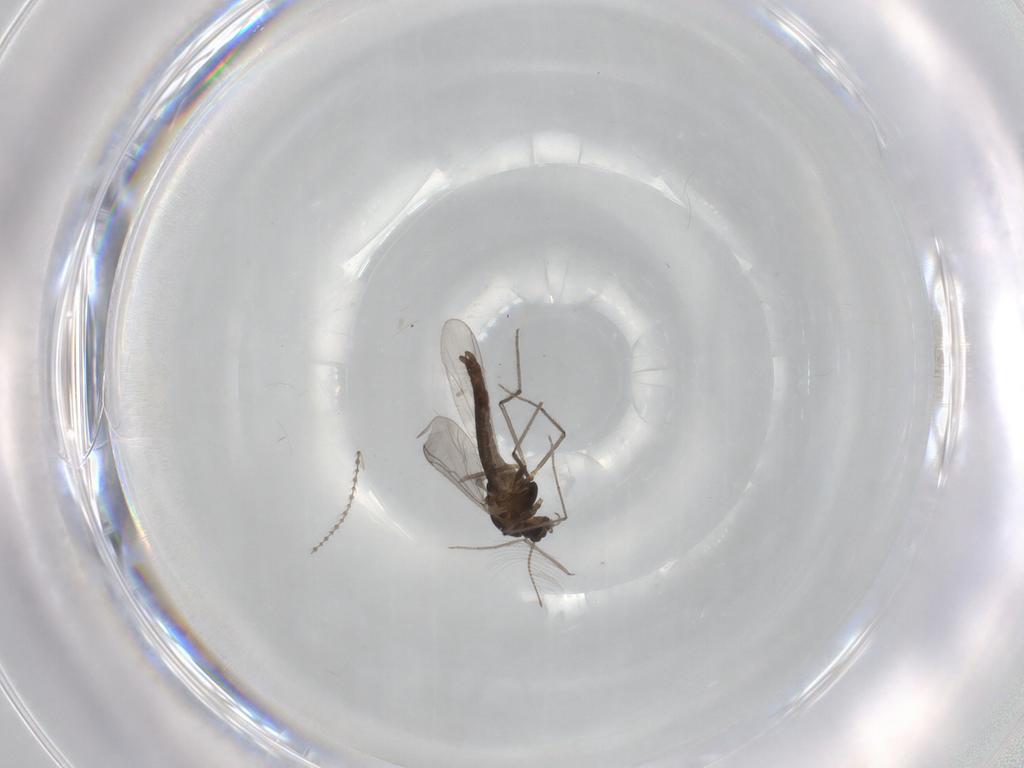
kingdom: Animalia
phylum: Arthropoda
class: Insecta
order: Diptera
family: Chironomidae
